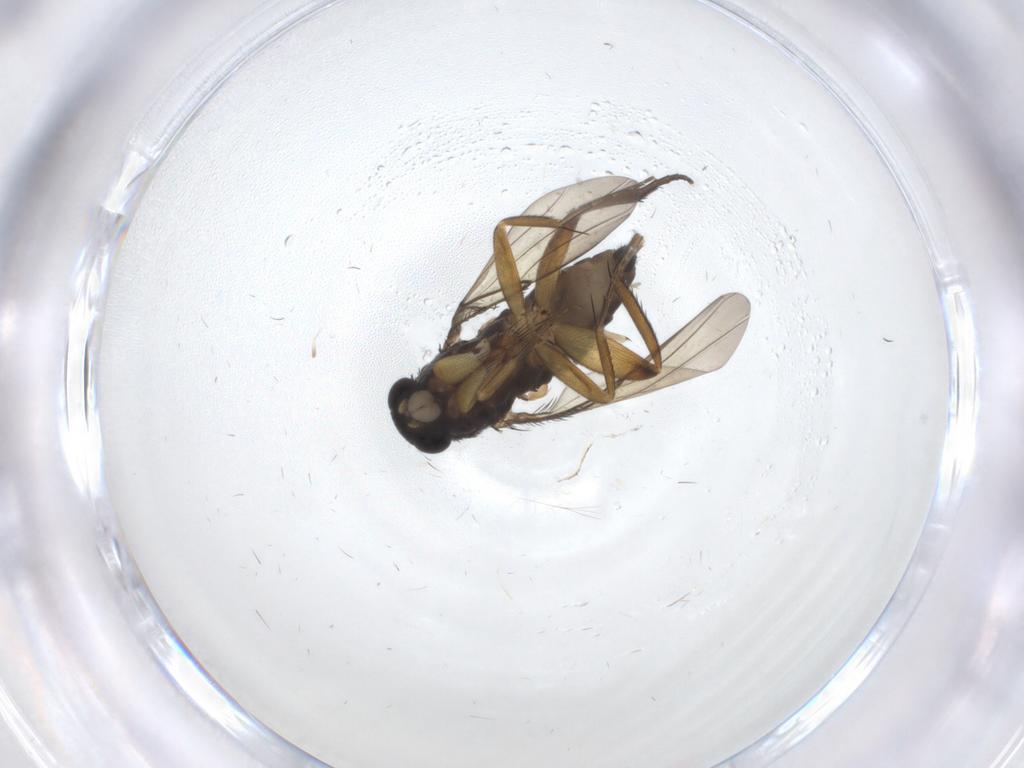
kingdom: Animalia
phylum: Arthropoda
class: Insecta
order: Diptera
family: Phoridae
